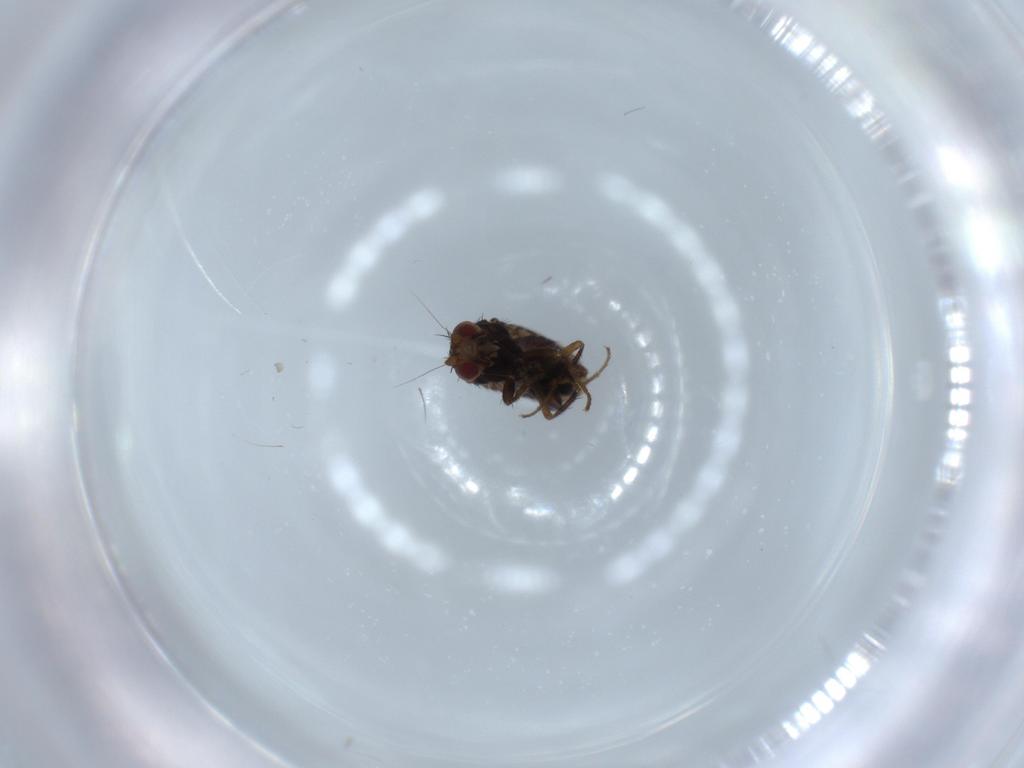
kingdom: Animalia
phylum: Arthropoda
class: Insecta
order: Diptera
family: Sphaeroceridae
